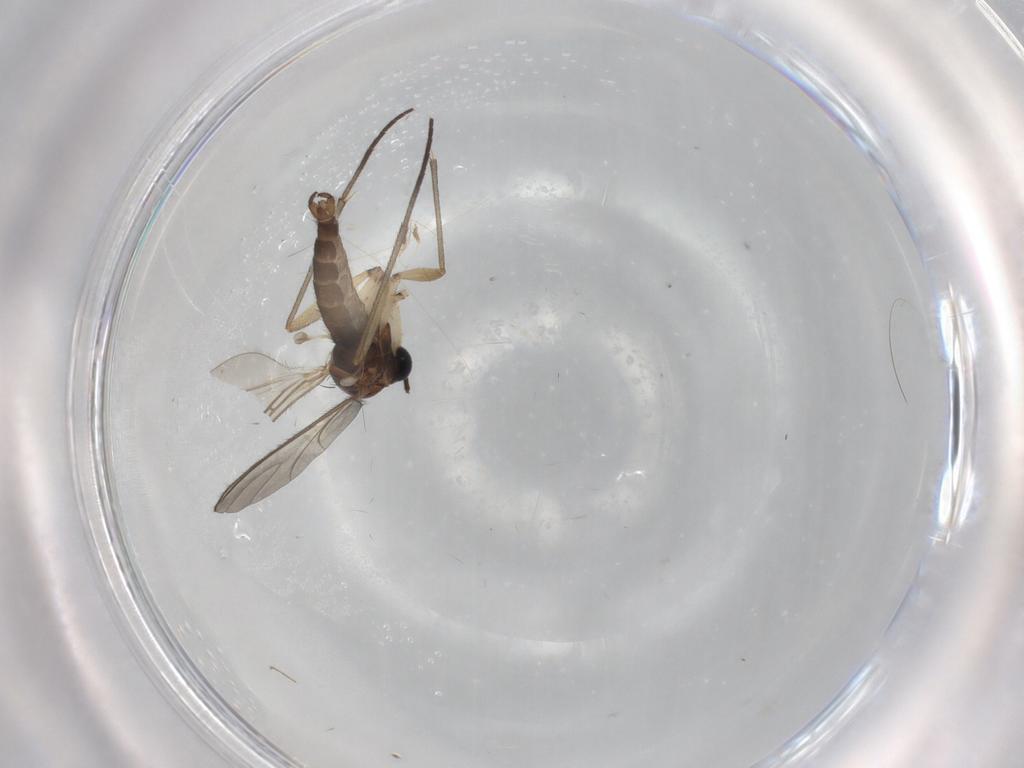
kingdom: Animalia
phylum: Arthropoda
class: Insecta
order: Diptera
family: Sciaridae
